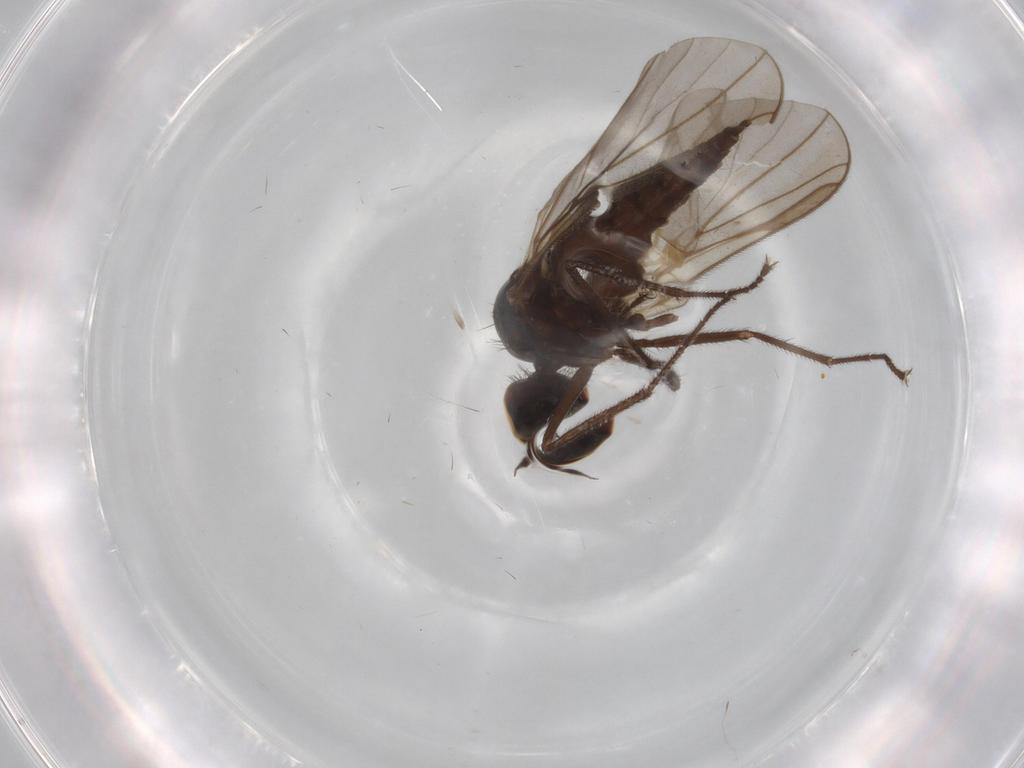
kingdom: Animalia
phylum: Arthropoda
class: Insecta
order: Diptera
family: Hybotidae
